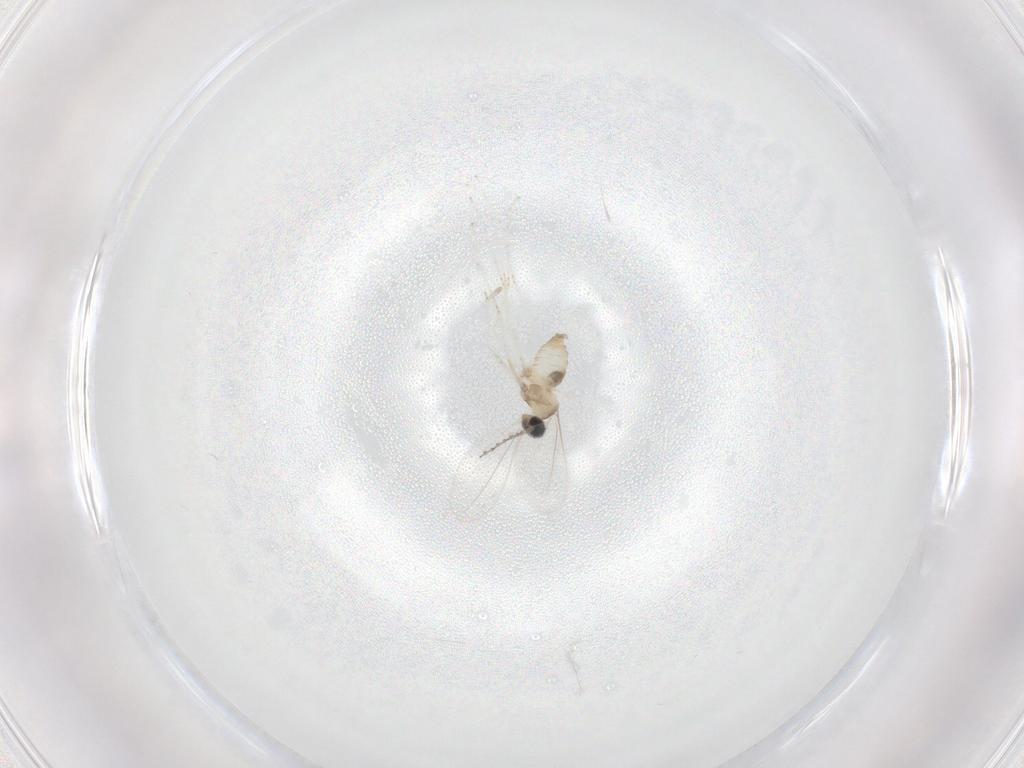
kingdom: Animalia
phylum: Arthropoda
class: Insecta
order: Diptera
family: Cecidomyiidae
